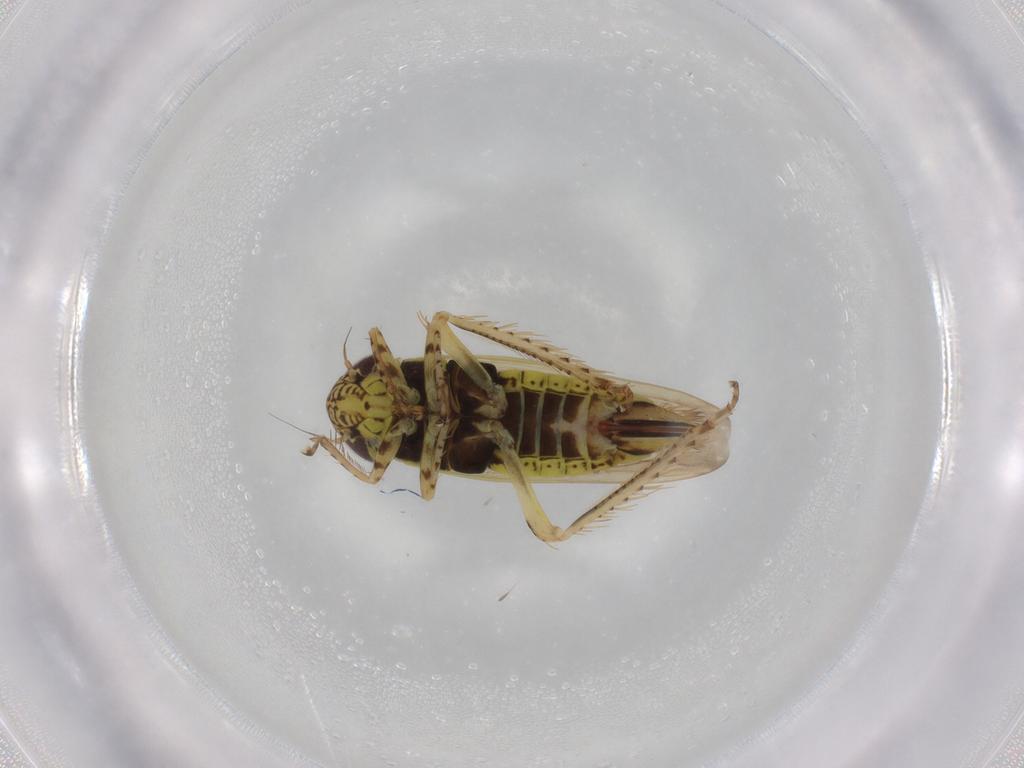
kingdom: Animalia
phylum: Arthropoda
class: Insecta
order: Hemiptera
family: Cicadellidae
